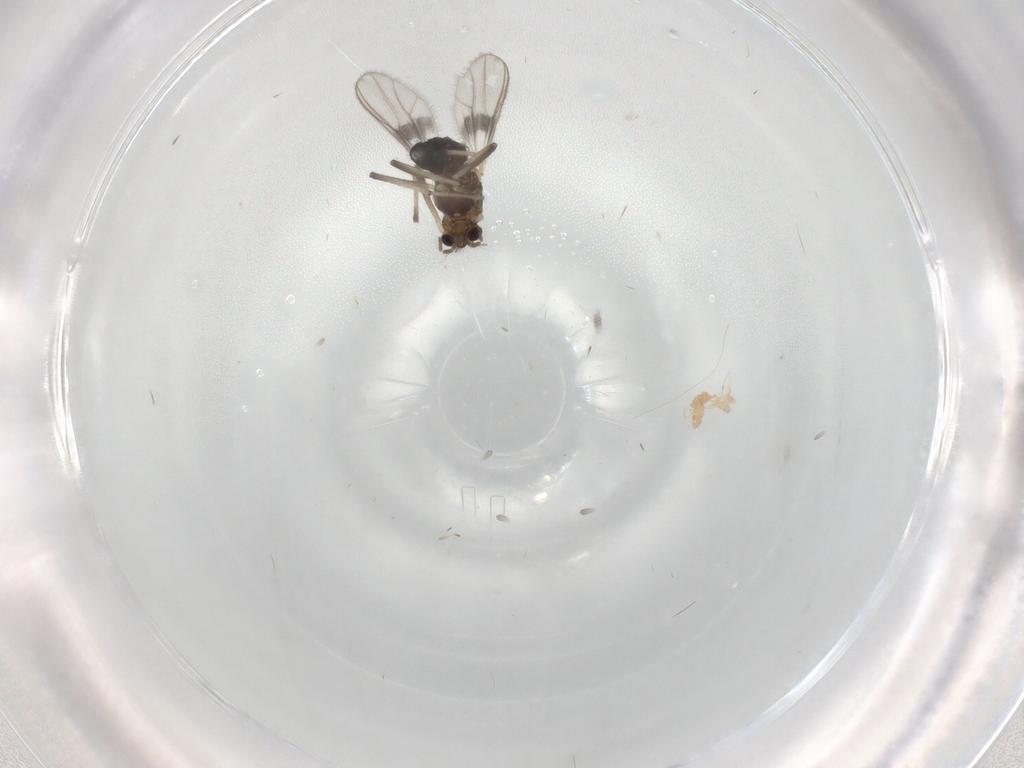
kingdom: Animalia
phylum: Arthropoda
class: Insecta
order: Diptera
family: Chironomidae
